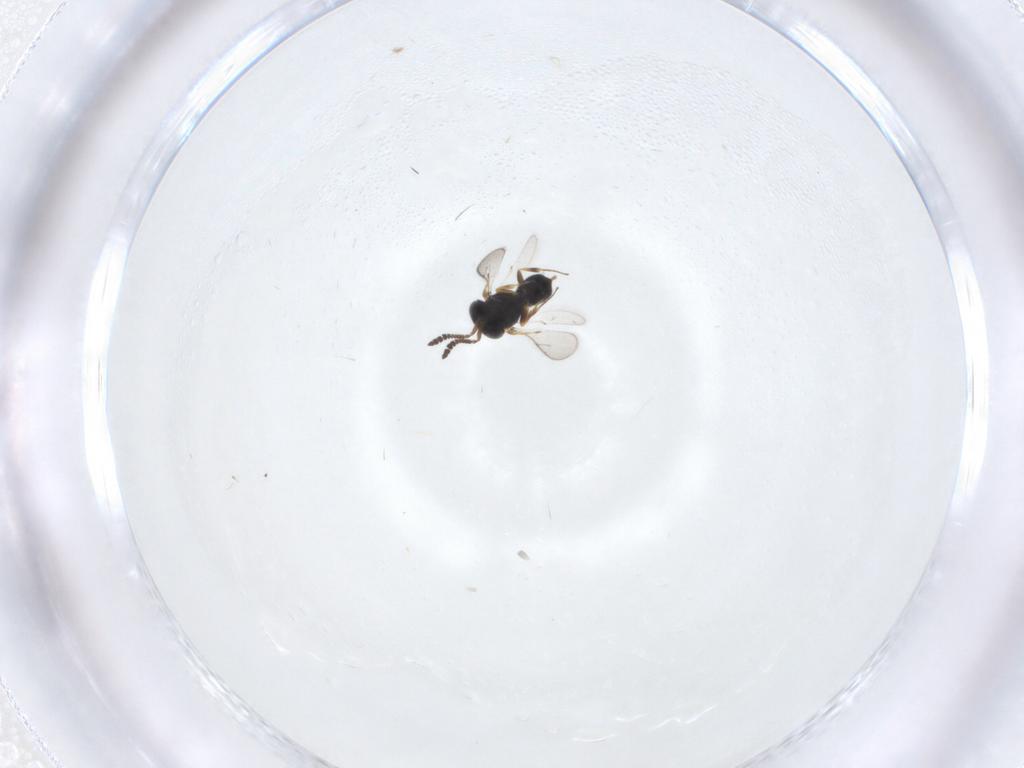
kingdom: Animalia
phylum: Arthropoda
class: Insecta
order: Hymenoptera
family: Scelionidae
